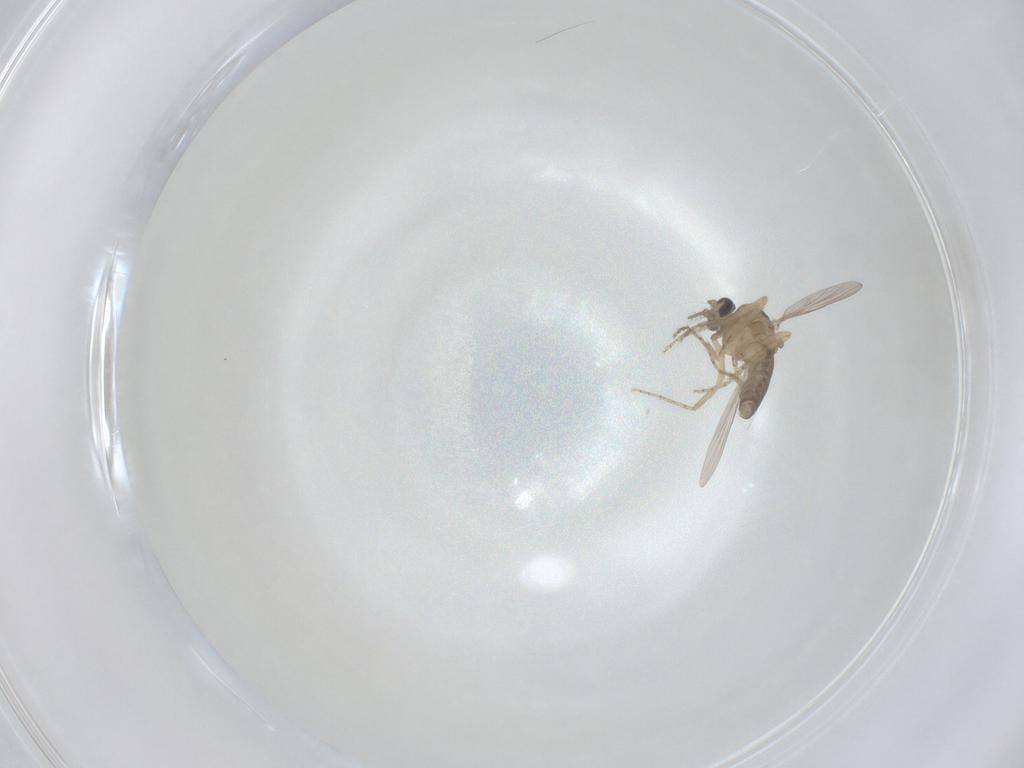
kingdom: Animalia
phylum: Arthropoda
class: Insecta
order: Diptera
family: Ceratopogonidae
